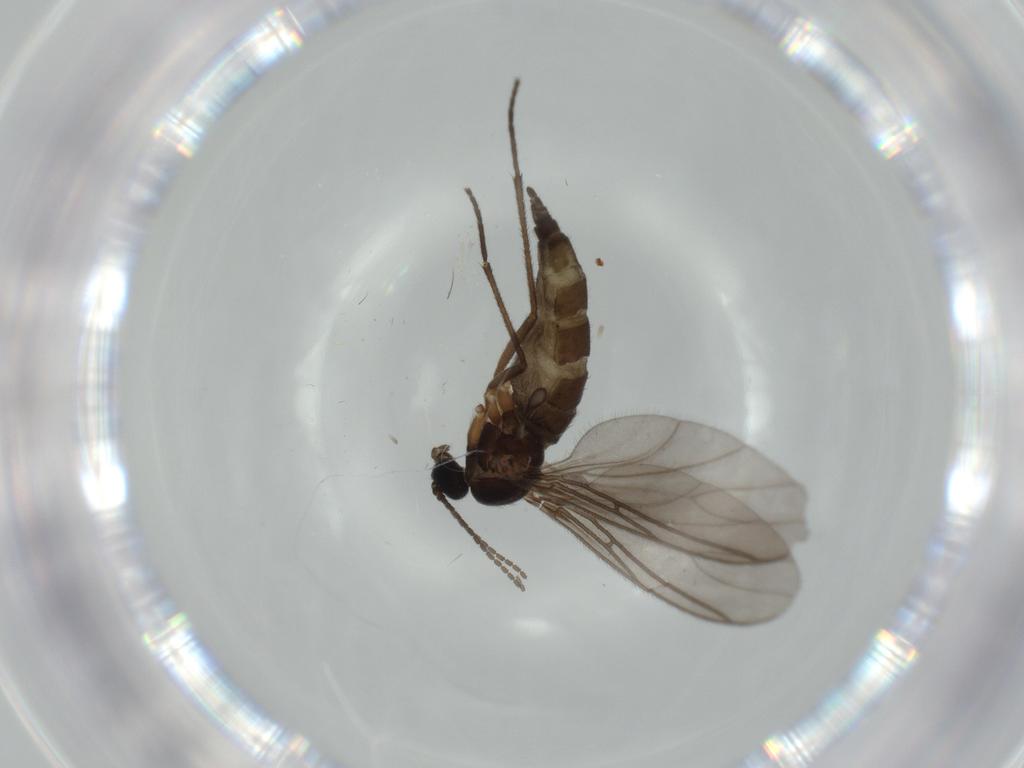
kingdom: Animalia
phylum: Arthropoda
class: Insecta
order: Diptera
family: Sciaridae
